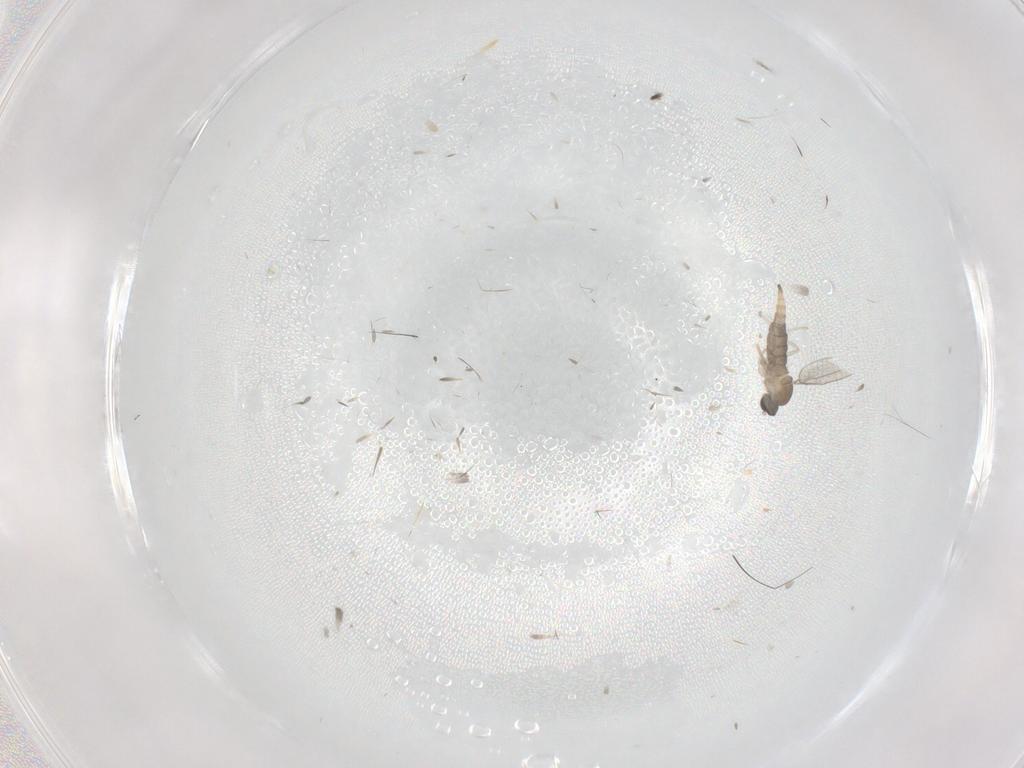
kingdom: Animalia
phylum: Arthropoda
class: Insecta
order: Diptera
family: Cecidomyiidae
